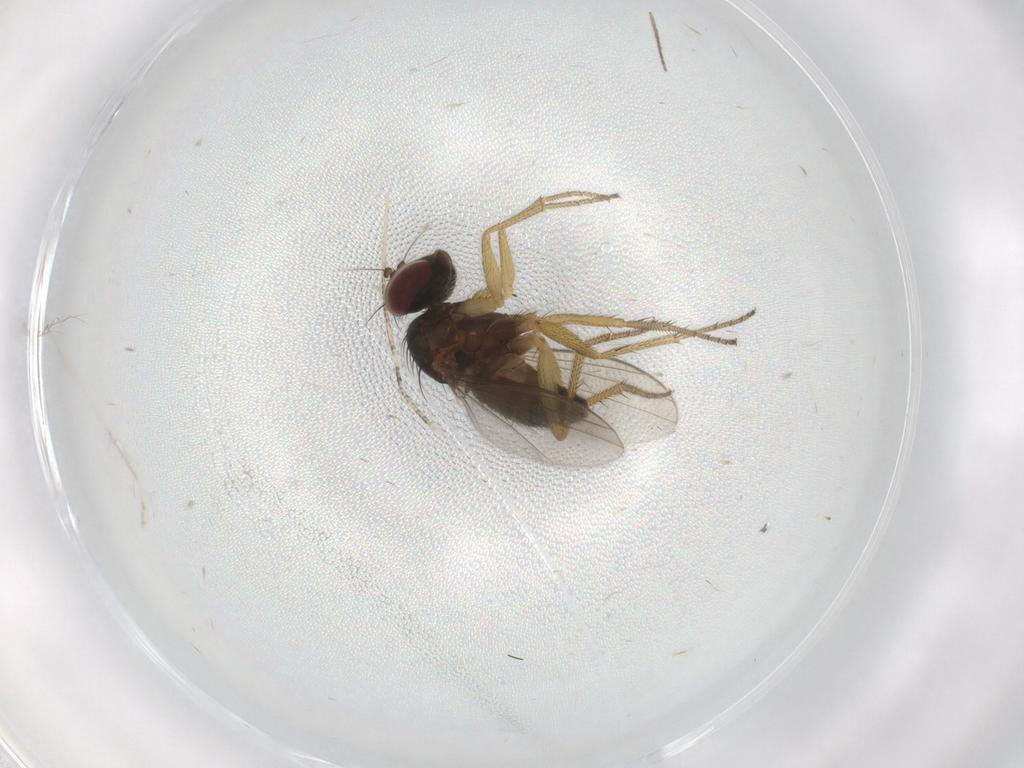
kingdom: Animalia
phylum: Arthropoda
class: Insecta
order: Diptera
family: Dolichopodidae
